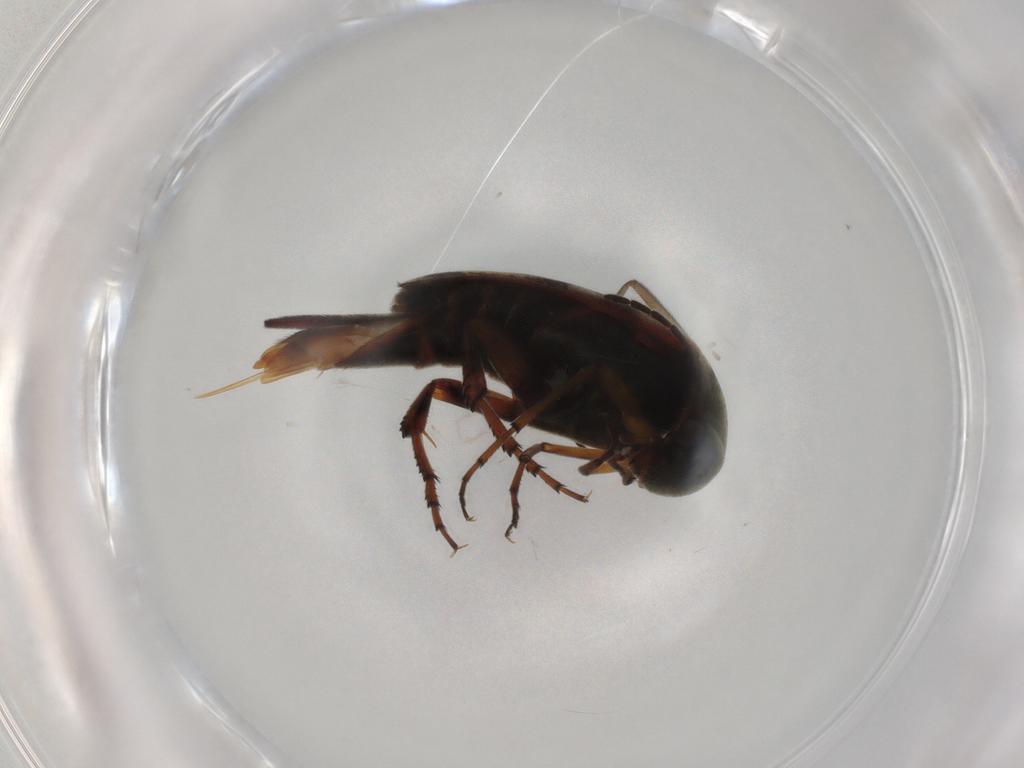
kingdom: Animalia
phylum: Arthropoda
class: Insecta
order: Coleoptera
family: Mordellidae
